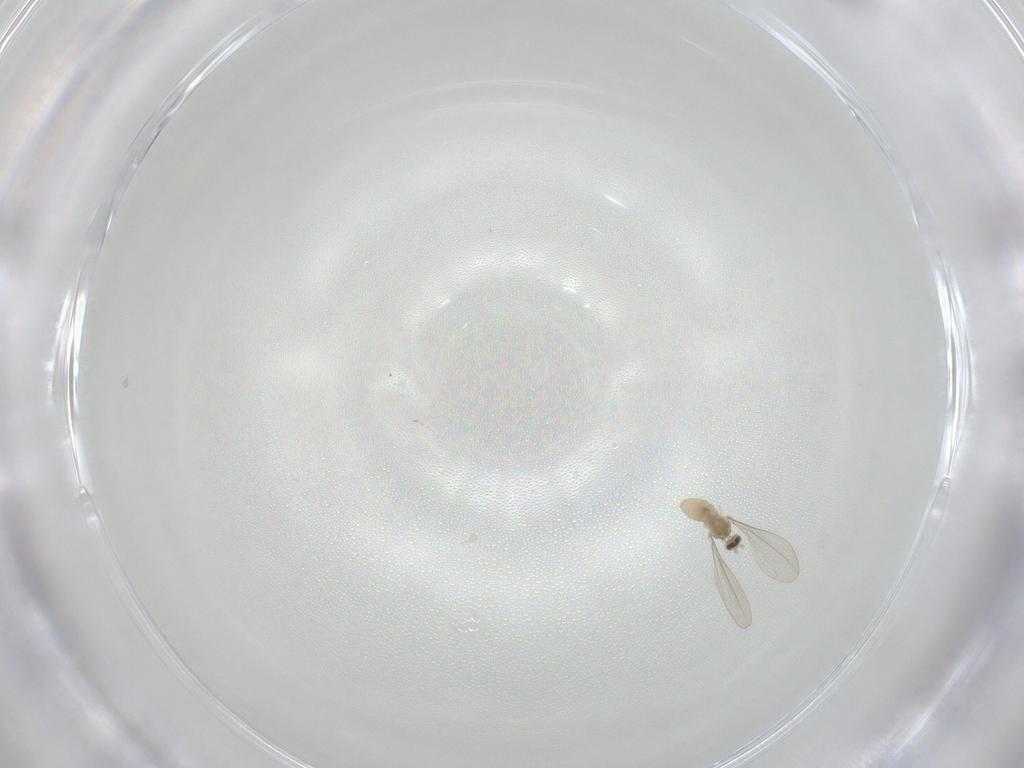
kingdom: Animalia
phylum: Arthropoda
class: Insecta
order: Diptera
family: Cecidomyiidae
